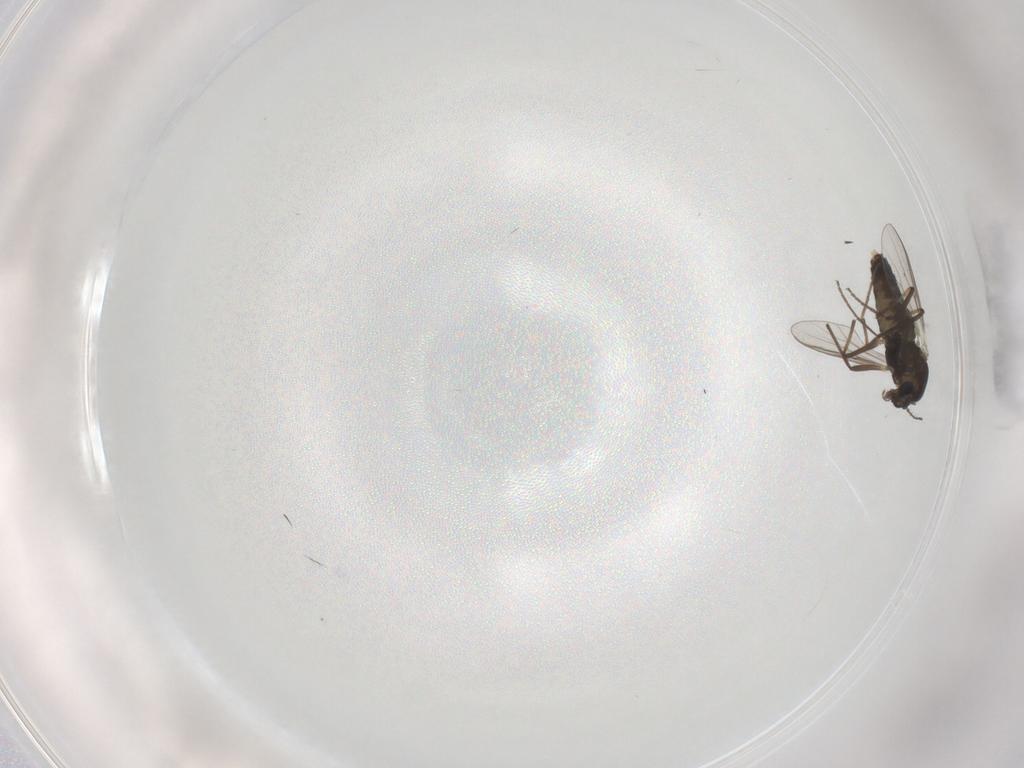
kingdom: Animalia
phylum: Arthropoda
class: Insecta
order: Diptera
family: Chironomidae
